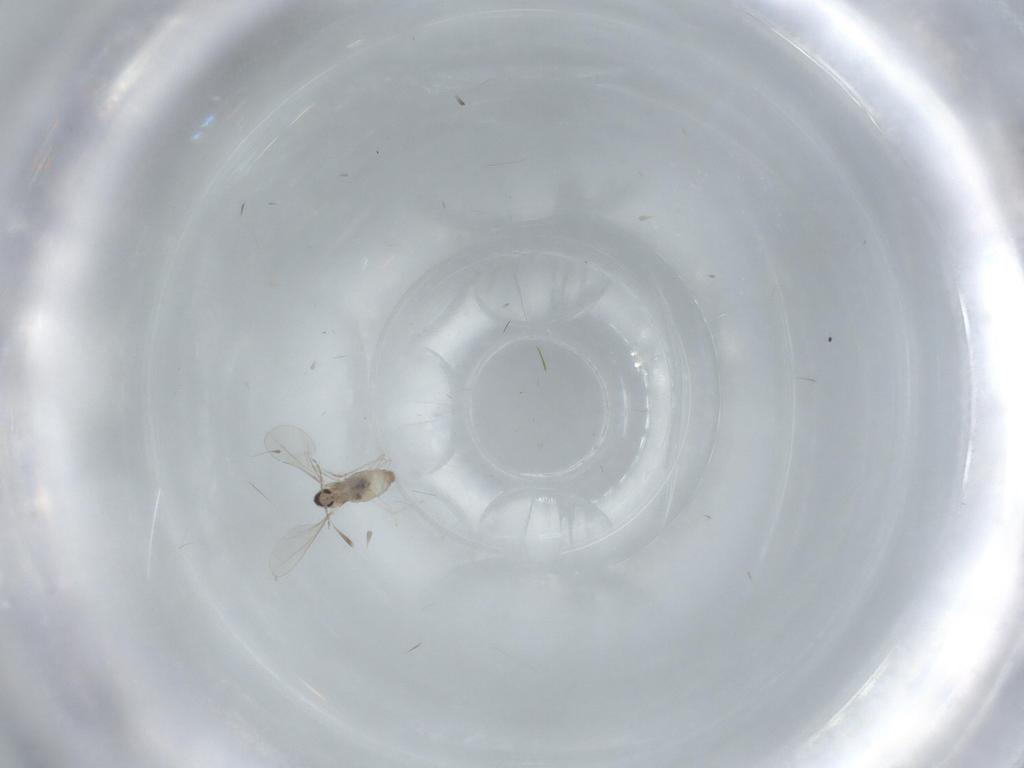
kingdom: Animalia
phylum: Arthropoda
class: Insecta
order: Diptera
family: Cecidomyiidae
